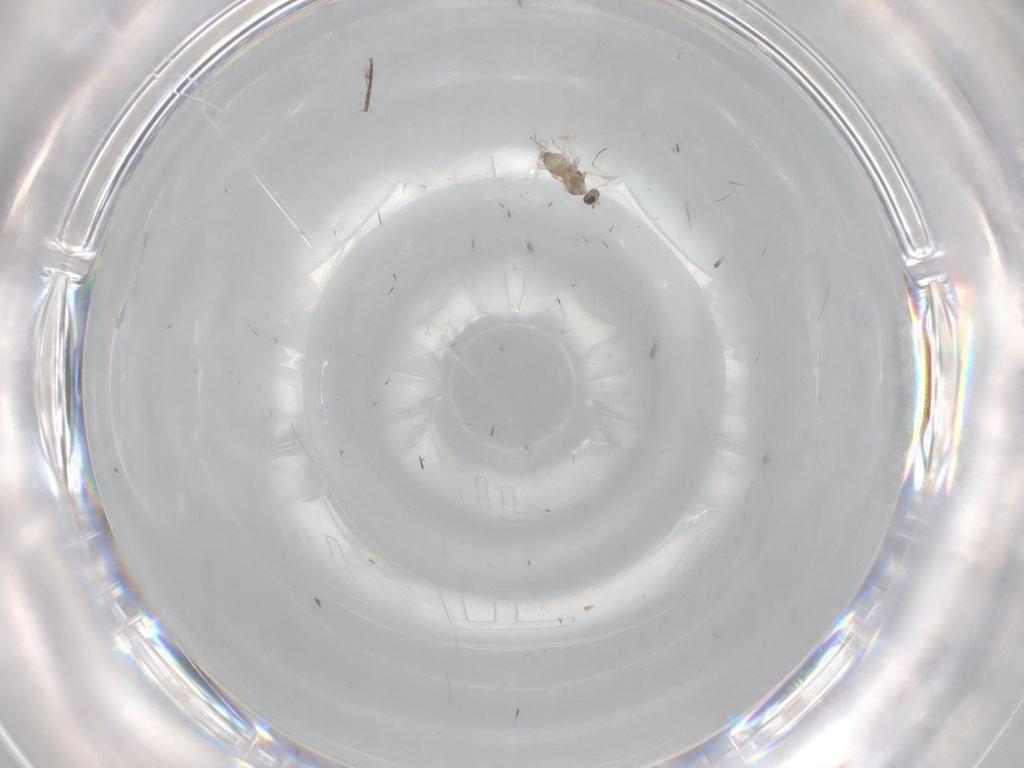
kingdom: Animalia
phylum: Arthropoda
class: Insecta
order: Diptera
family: Cecidomyiidae
